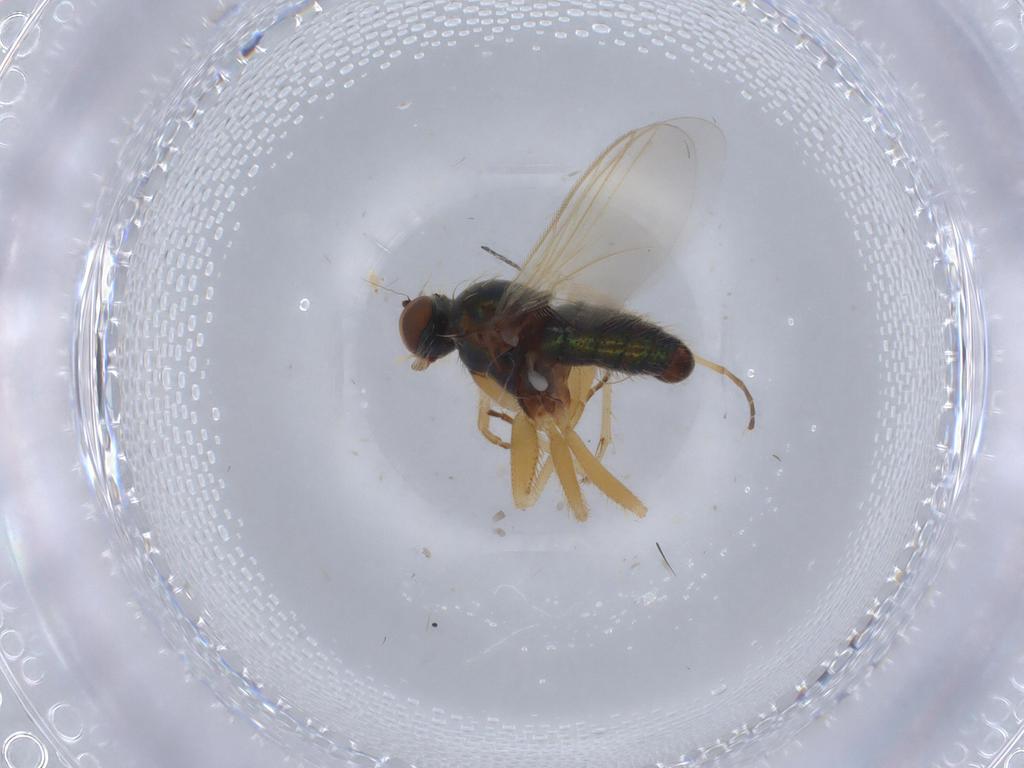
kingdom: Animalia
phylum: Arthropoda
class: Insecta
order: Diptera
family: Dolichopodidae
